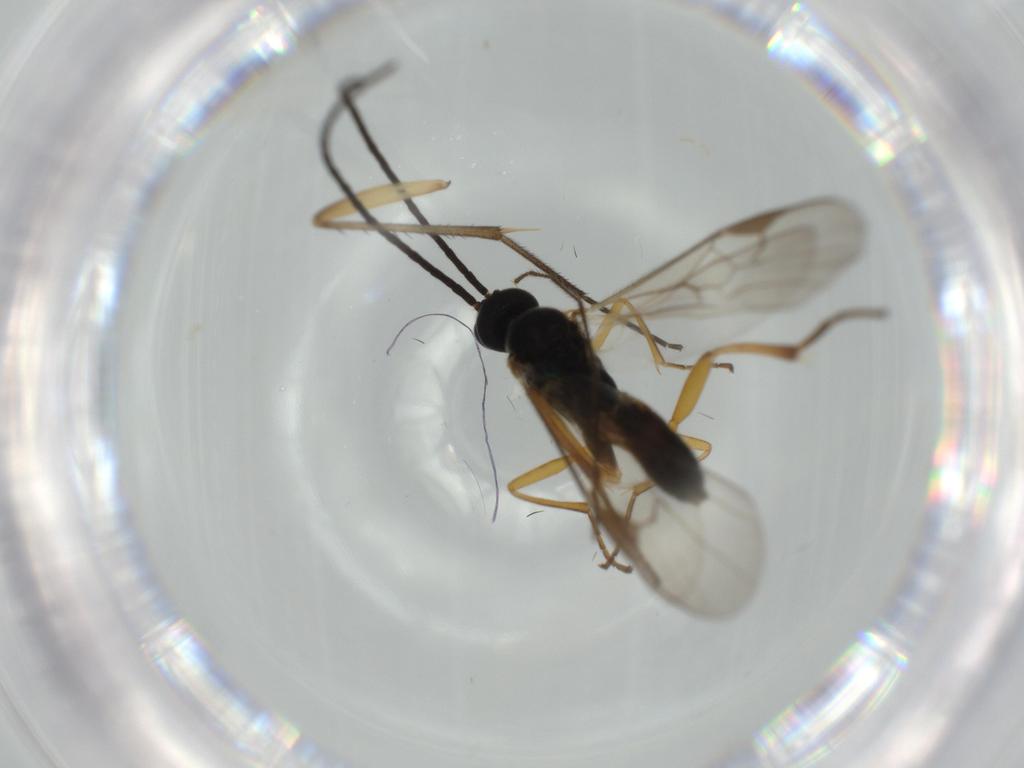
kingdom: Animalia
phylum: Arthropoda
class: Insecta
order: Hymenoptera
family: Braconidae
